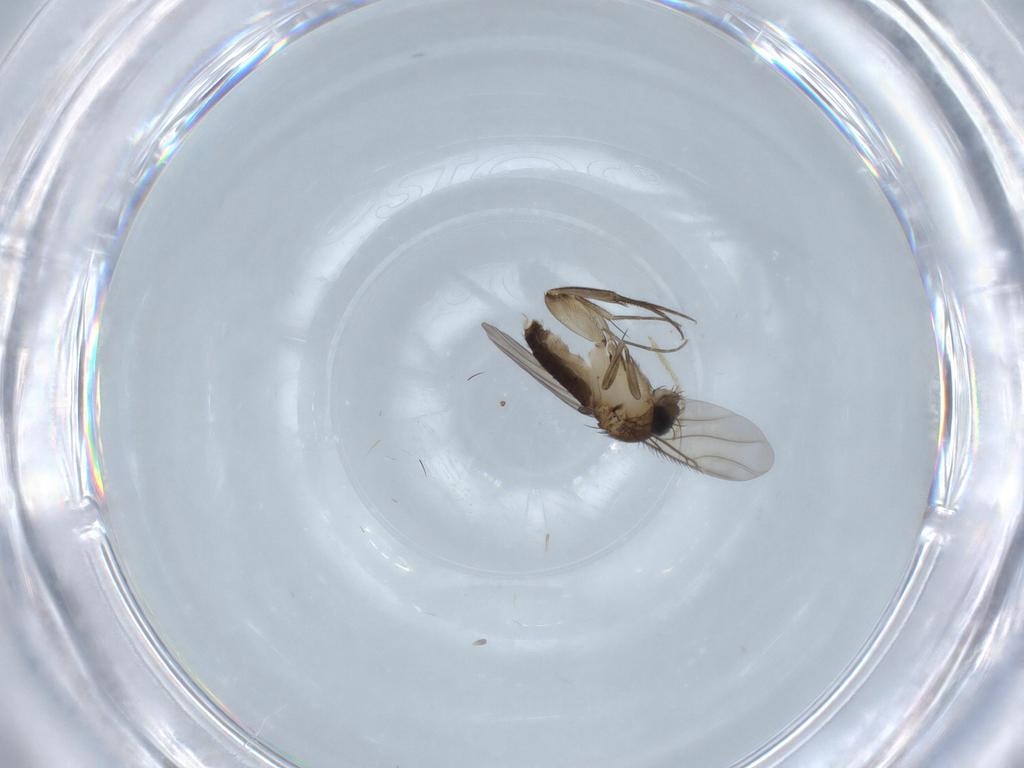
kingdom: Animalia
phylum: Arthropoda
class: Insecta
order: Diptera
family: Phoridae
